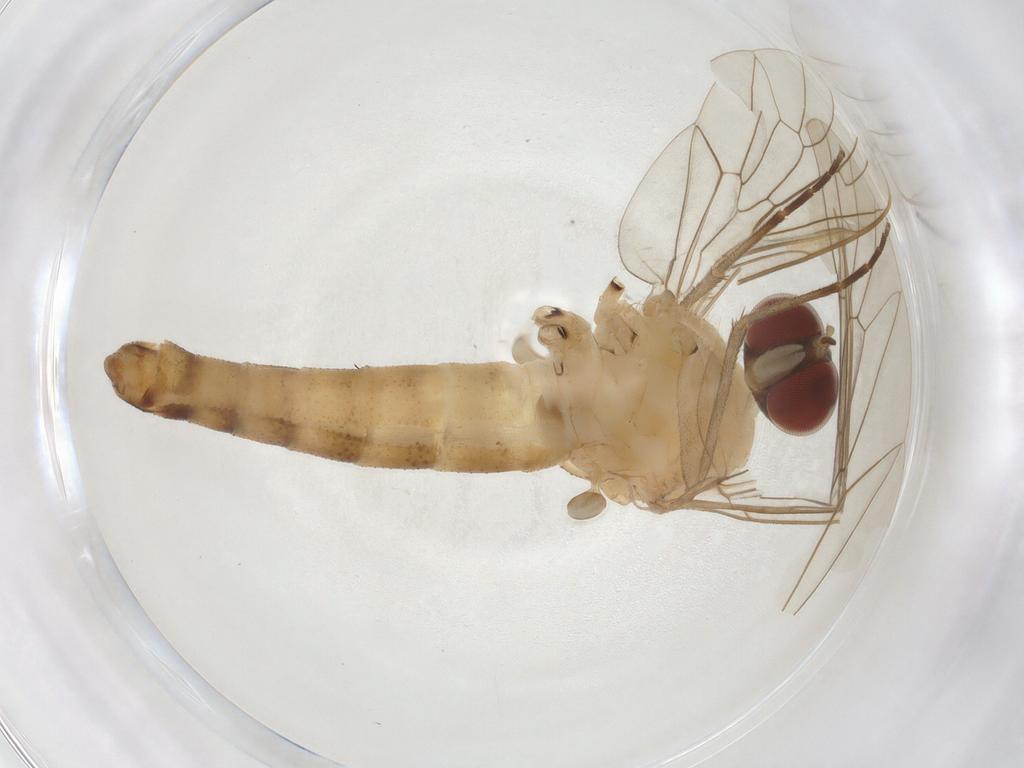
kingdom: Animalia
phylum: Arthropoda
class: Insecta
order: Diptera
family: Apsilocephalidae
